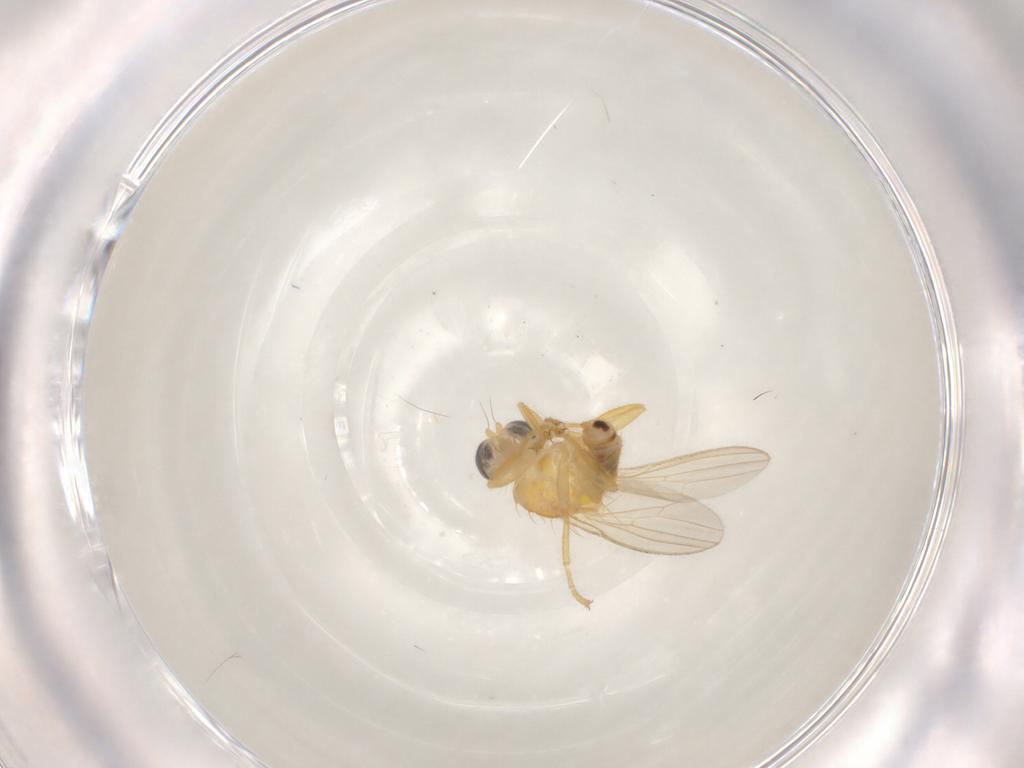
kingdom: Animalia
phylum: Arthropoda
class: Insecta
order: Diptera
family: Chyromyidae
